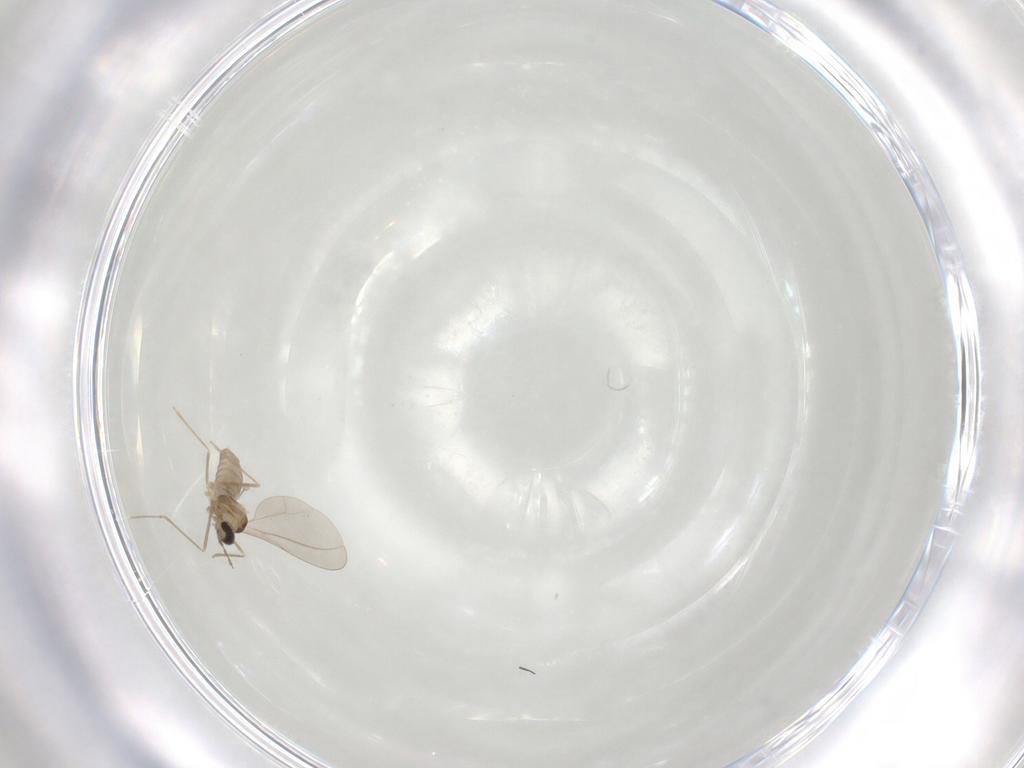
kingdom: Animalia
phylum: Arthropoda
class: Insecta
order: Diptera
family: Cecidomyiidae
